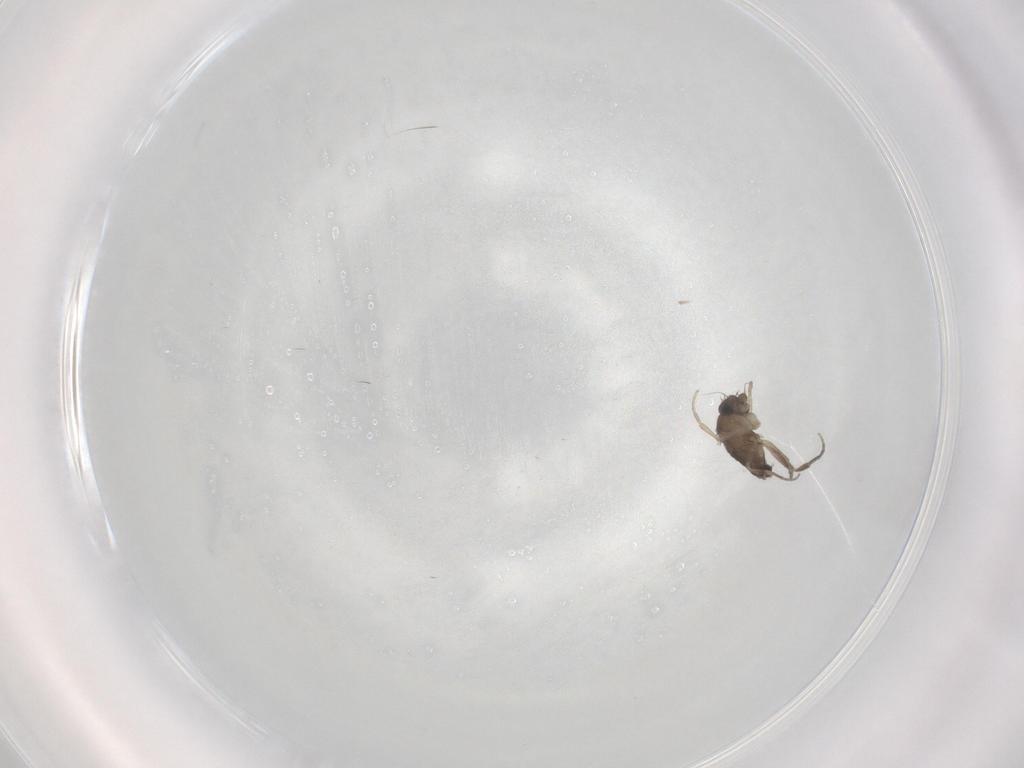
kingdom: Animalia
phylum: Arthropoda
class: Insecta
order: Diptera
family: Phoridae
